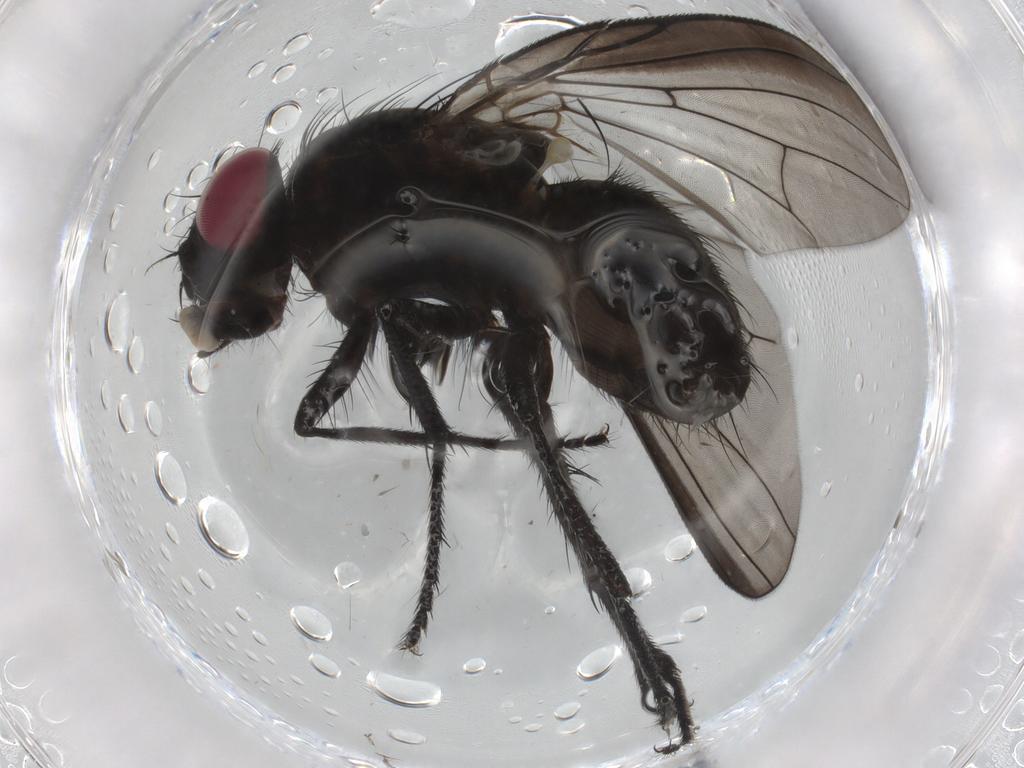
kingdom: Animalia
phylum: Arthropoda
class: Insecta
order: Diptera
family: Fannia
